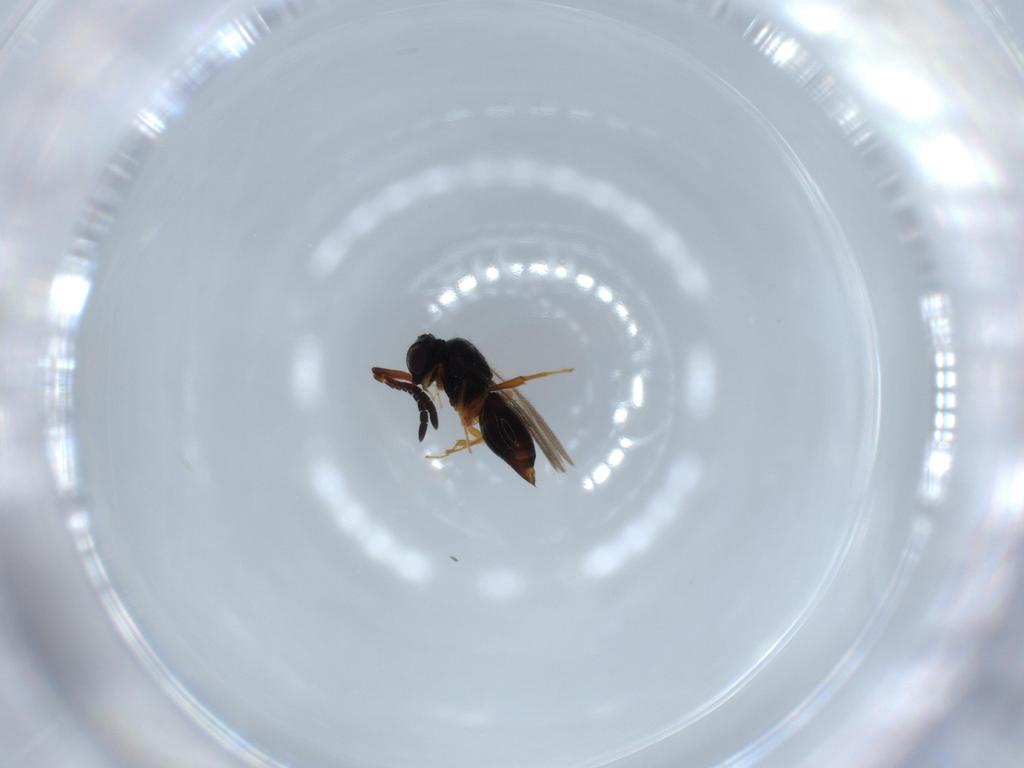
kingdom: Animalia
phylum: Arthropoda
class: Insecta
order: Hymenoptera
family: Ceraphronidae
